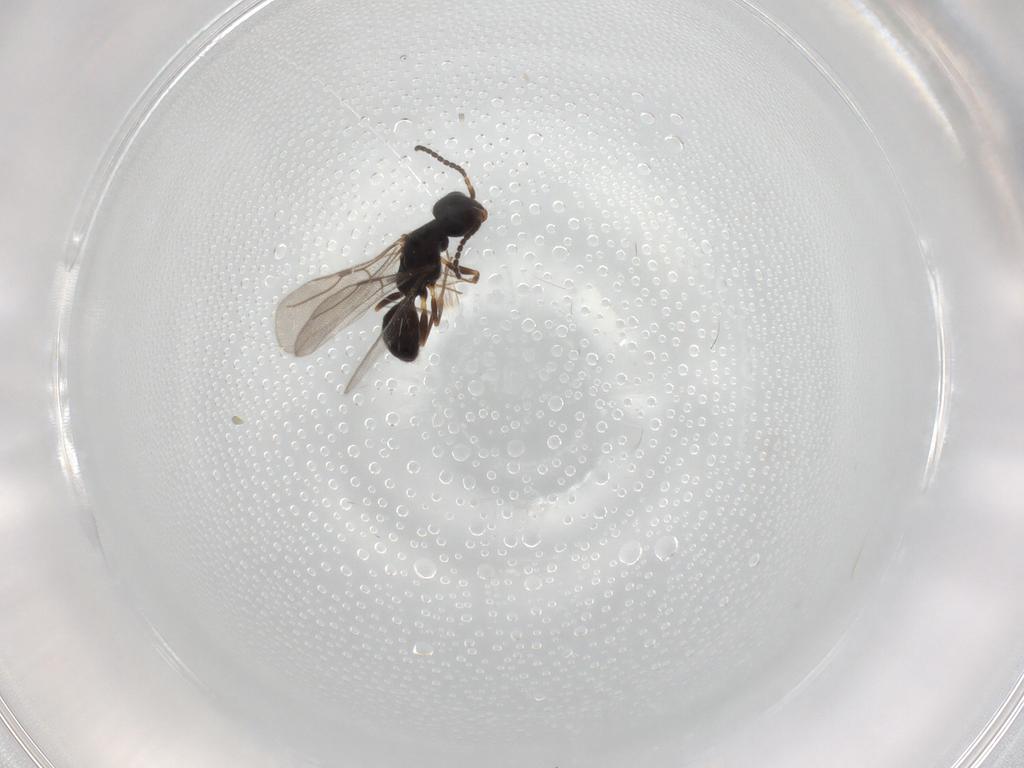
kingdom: Animalia
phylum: Arthropoda
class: Insecta
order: Hymenoptera
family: Bethylidae
